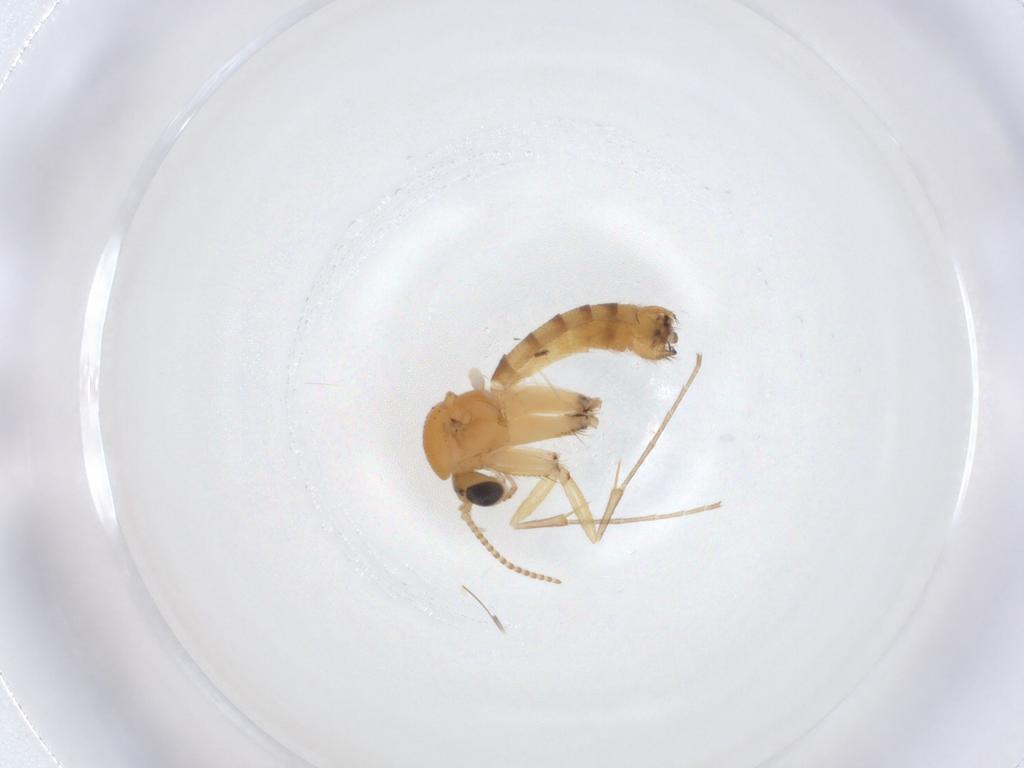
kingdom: Animalia
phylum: Arthropoda
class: Insecta
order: Diptera
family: Mycetophilidae
